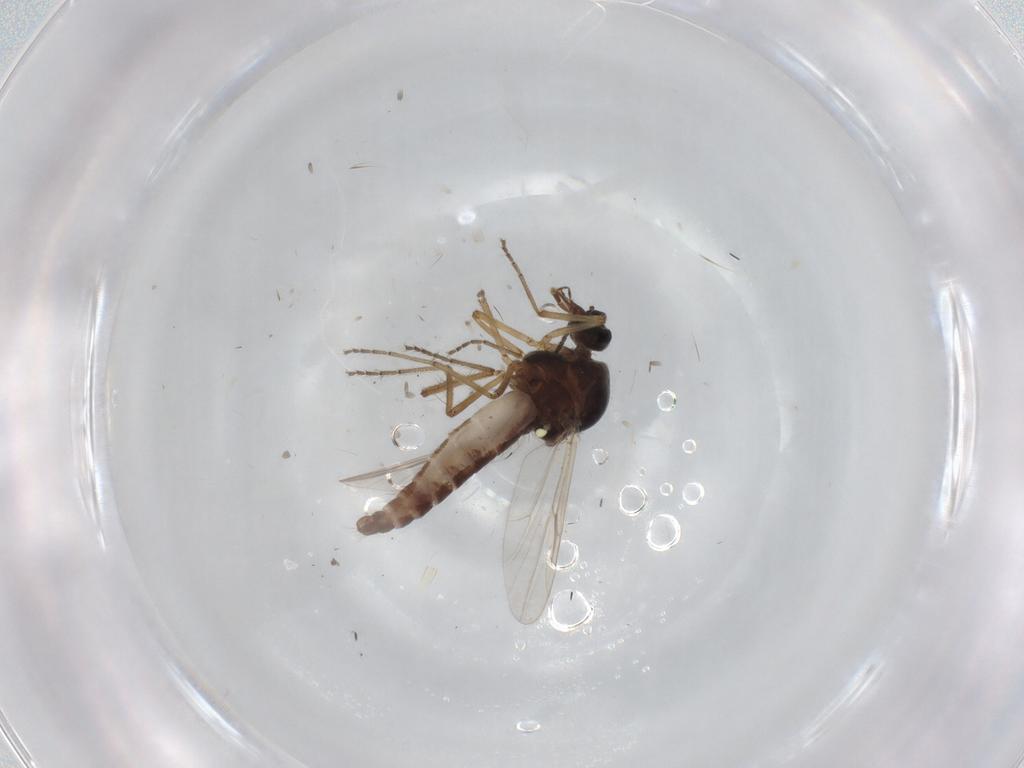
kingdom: Animalia
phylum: Arthropoda
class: Insecta
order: Diptera
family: Ceratopogonidae
